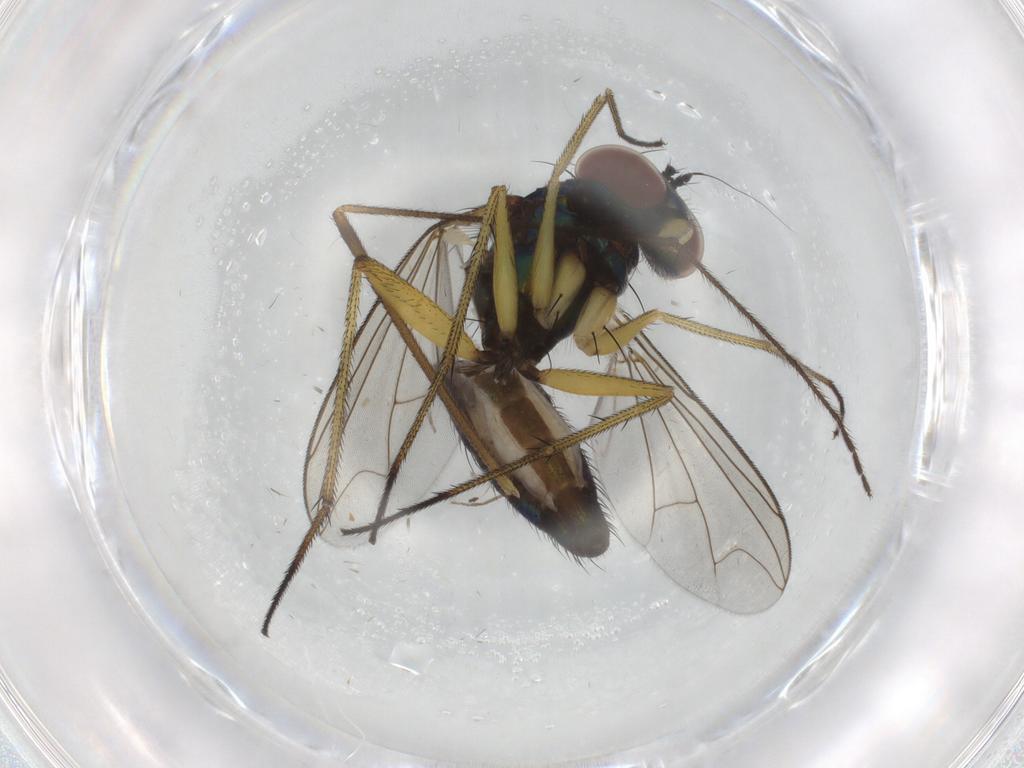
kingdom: Animalia
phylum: Arthropoda
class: Insecta
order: Diptera
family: Dolichopodidae
